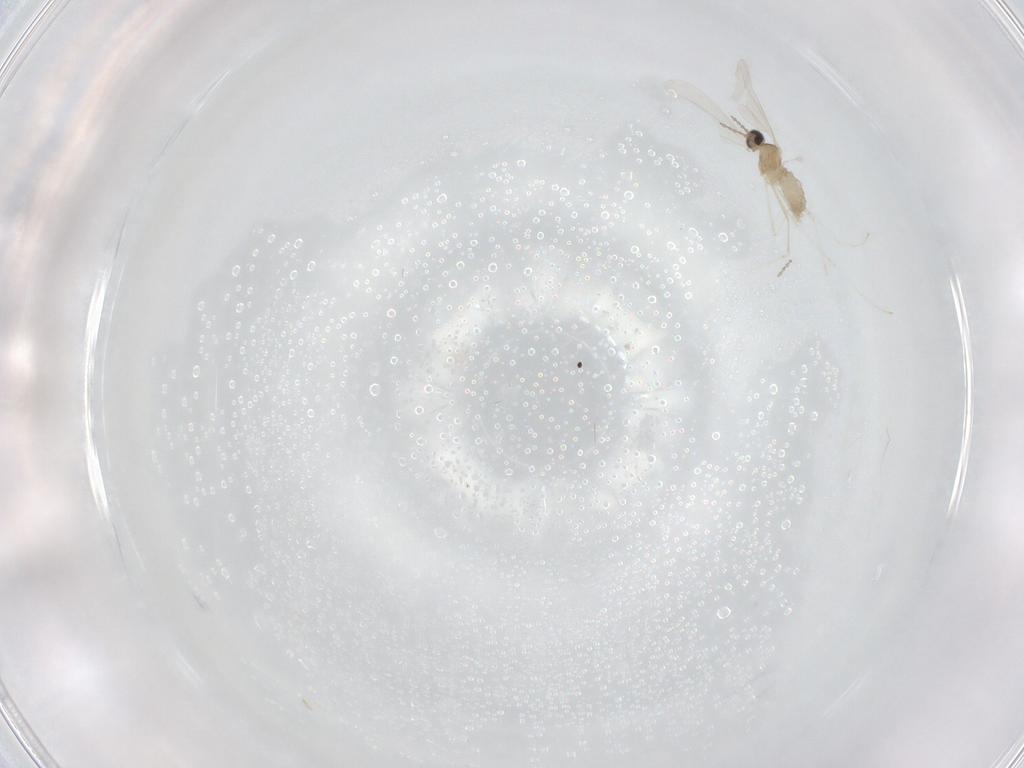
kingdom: Animalia
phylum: Arthropoda
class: Insecta
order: Diptera
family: Cecidomyiidae
